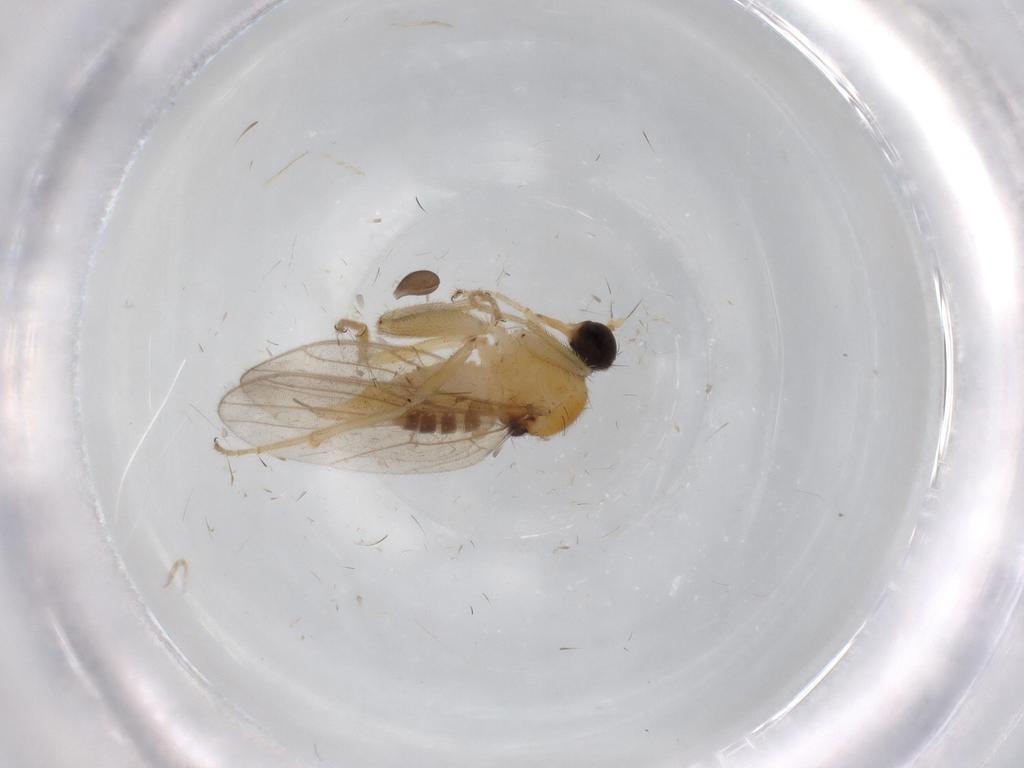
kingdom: Animalia
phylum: Arthropoda
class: Insecta
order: Diptera
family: Hybotidae
